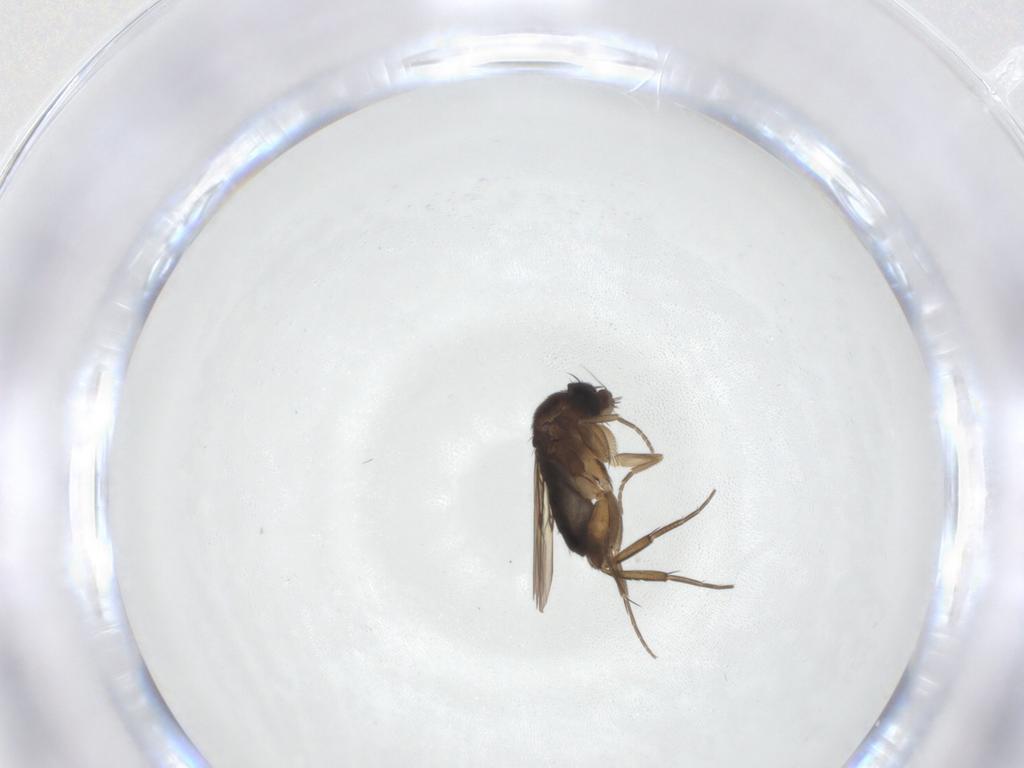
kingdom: Animalia
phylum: Arthropoda
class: Insecta
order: Diptera
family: Phoridae
